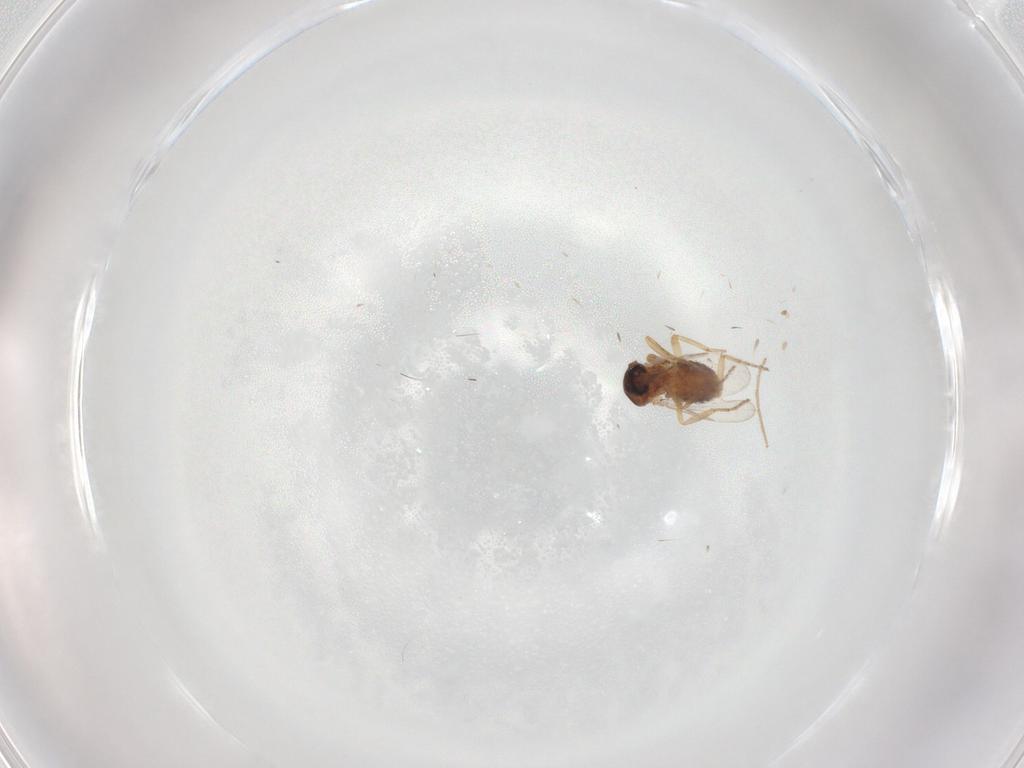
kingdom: Animalia
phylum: Arthropoda
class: Insecta
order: Diptera
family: Ceratopogonidae
